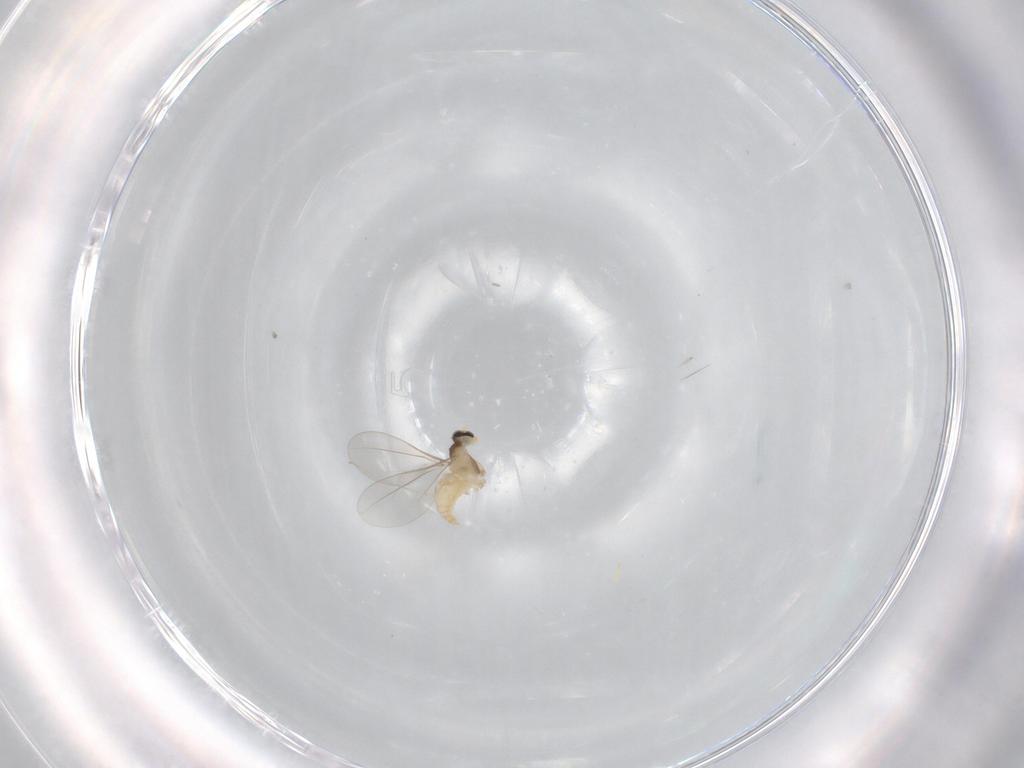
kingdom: Animalia
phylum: Arthropoda
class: Insecta
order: Diptera
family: Cecidomyiidae
